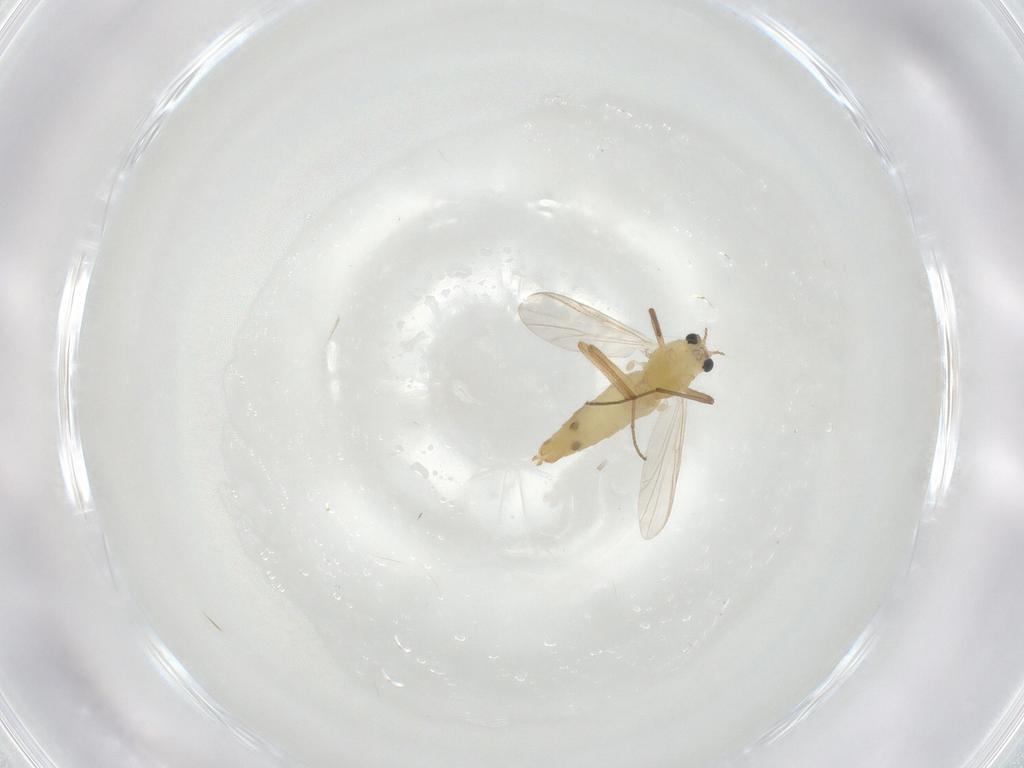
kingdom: Animalia
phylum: Arthropoda
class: Insecta
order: Diptera
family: Chironomidae
